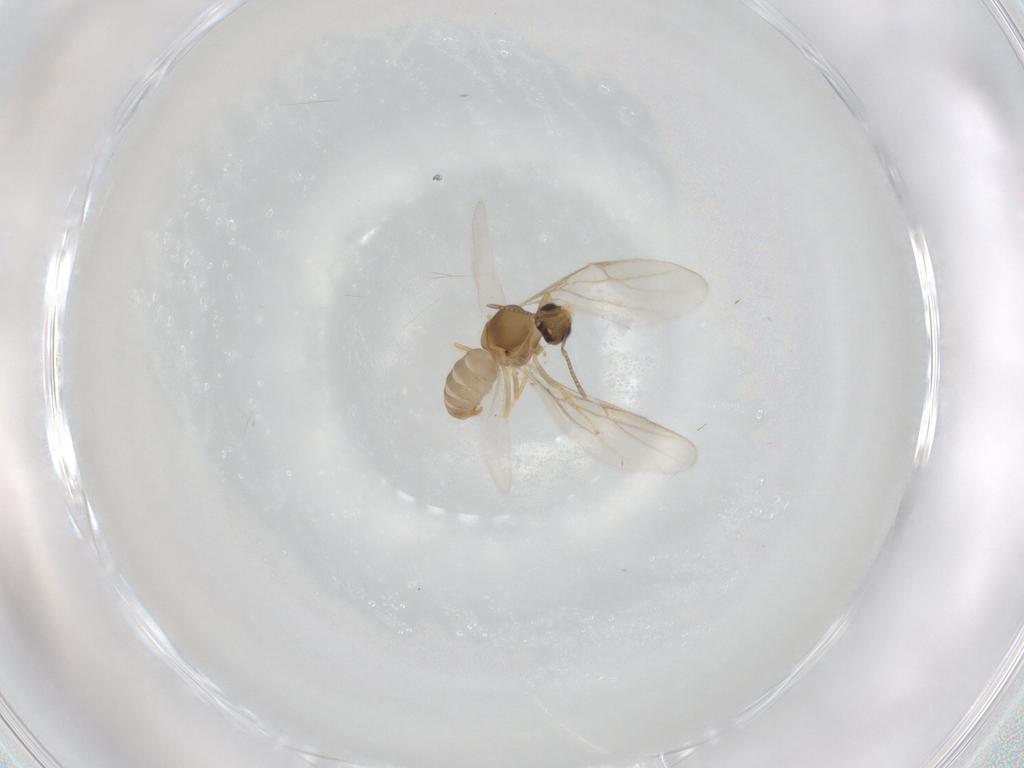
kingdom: Animalia
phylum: Arthropoda
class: Insecta
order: Hymenoptera
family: Formicidae
